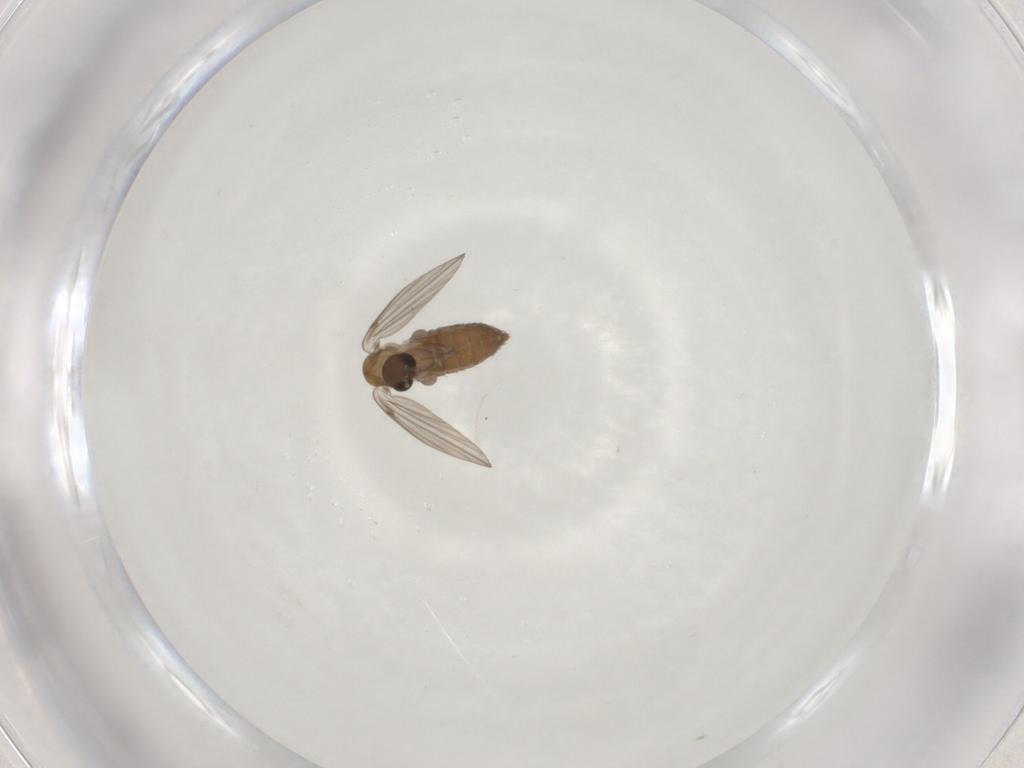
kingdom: Animalia
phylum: Arthropoda
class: Insecta
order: Diptera
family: Psychodidae
